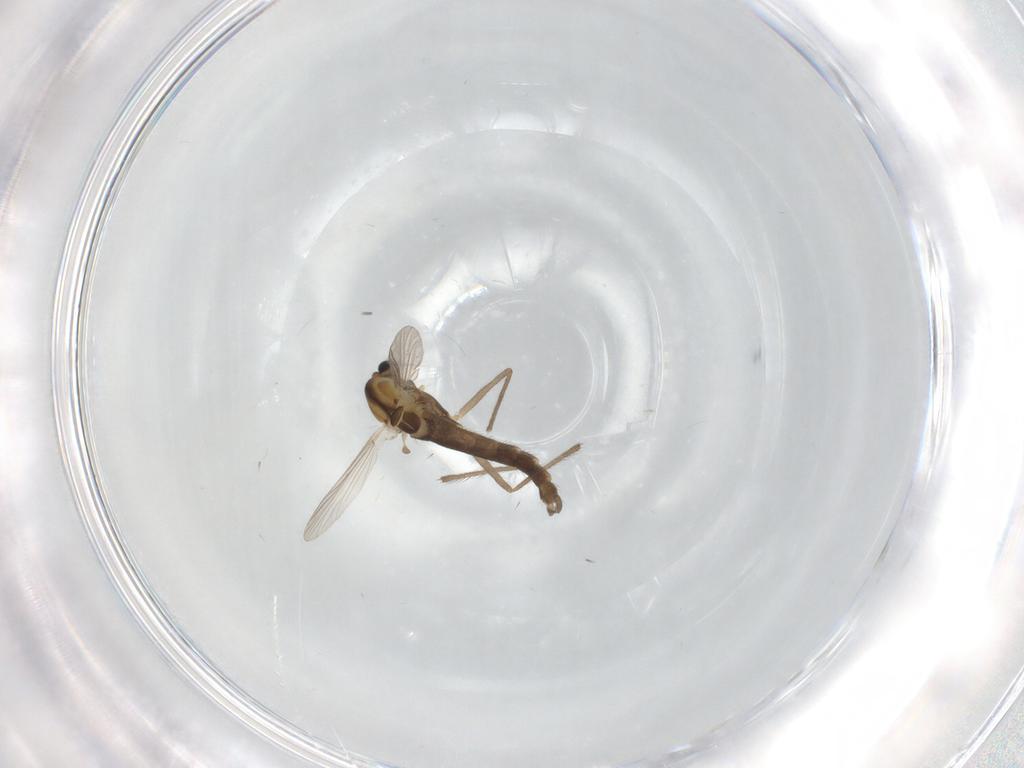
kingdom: Animalia
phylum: Arthropoda
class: Insecta
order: Diptera
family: Chironomidae
